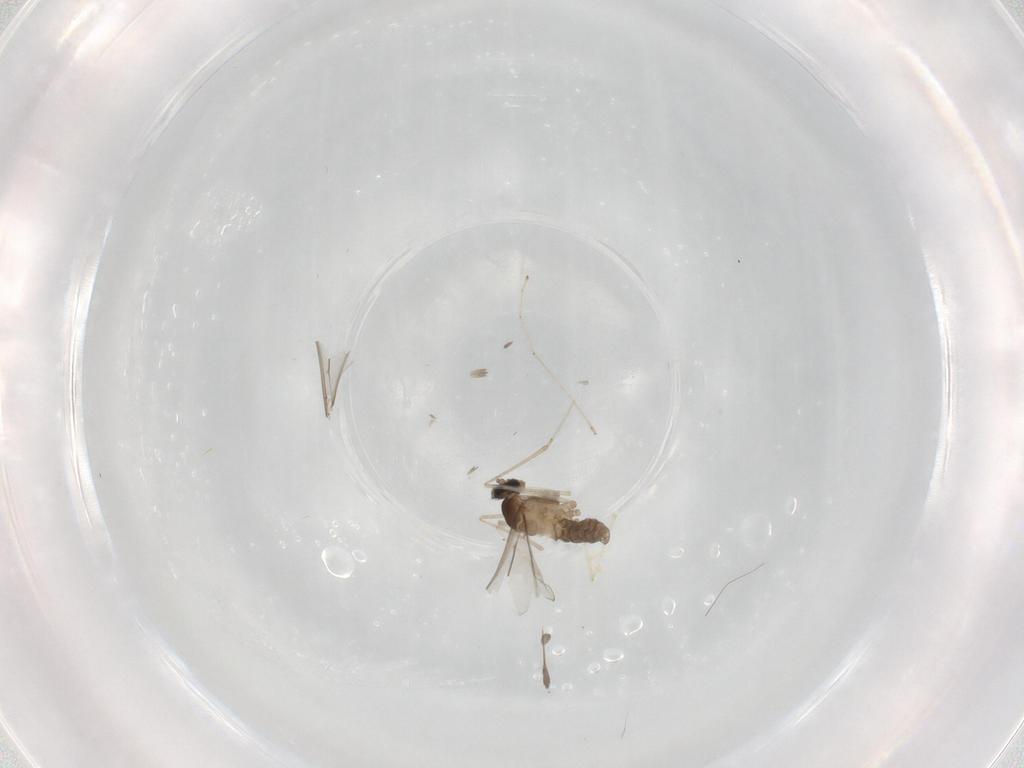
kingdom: Animalia
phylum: Arthropoda
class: Insecta
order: Diptera
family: Cecidomyiidae
